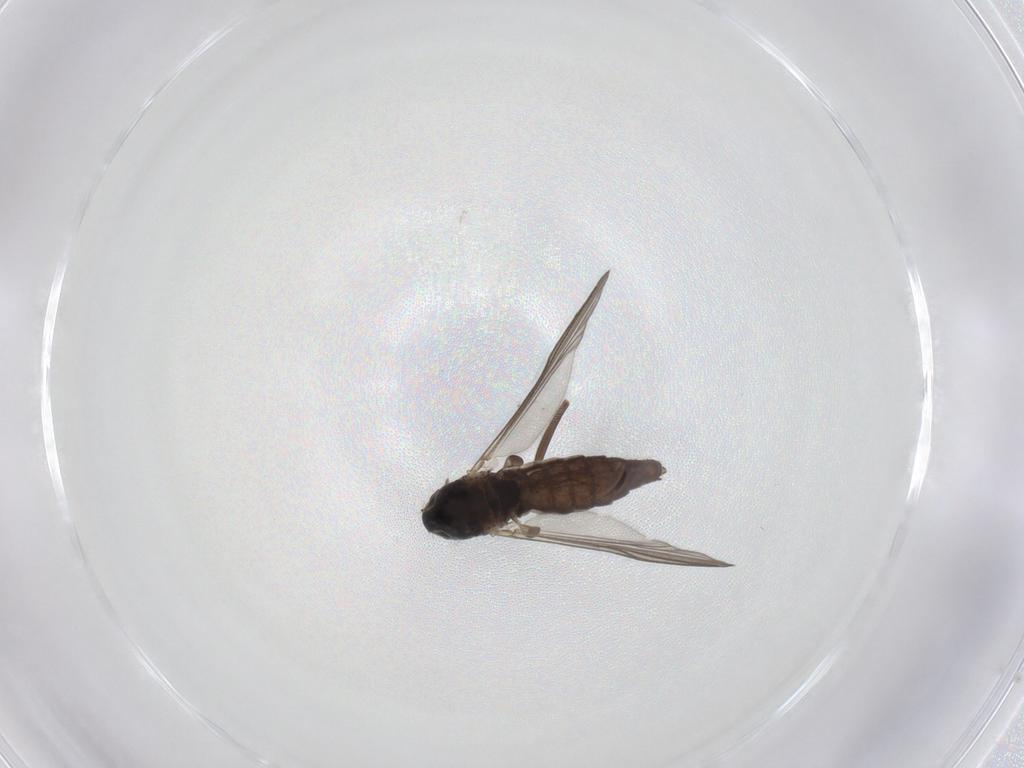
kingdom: Animalia
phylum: Arthropoda
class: Insecta
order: Diptera
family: Chironomidae
